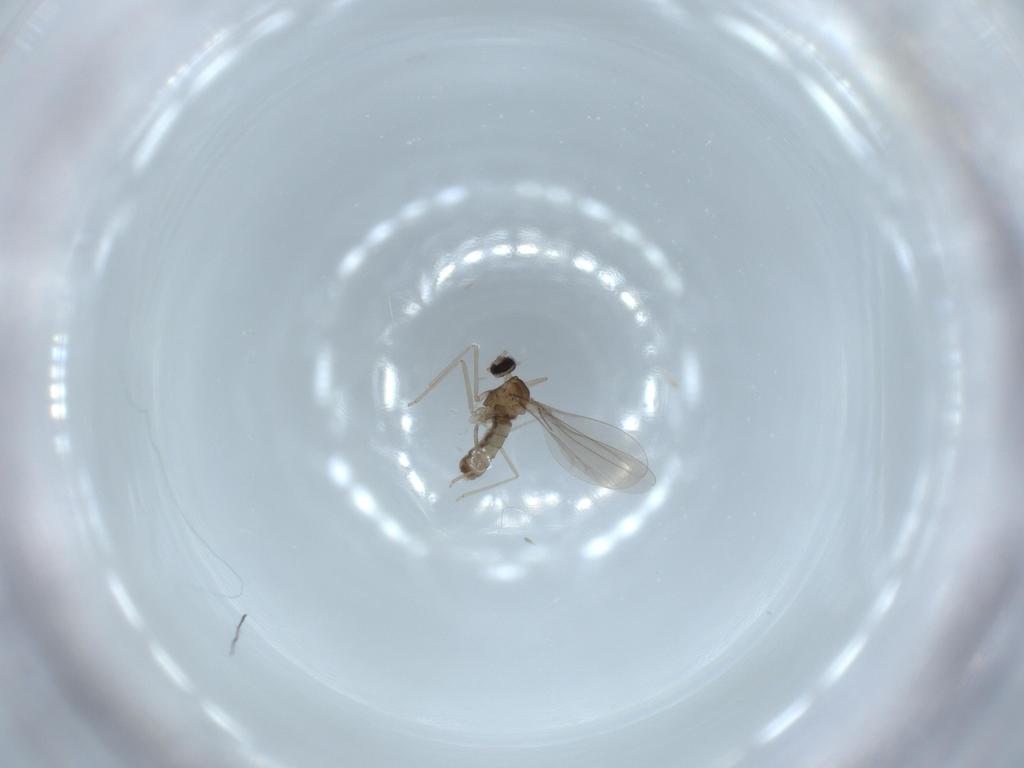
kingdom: Animalia
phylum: Arthropoda
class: Insecta
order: Diptera
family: Cecidomyiidae
